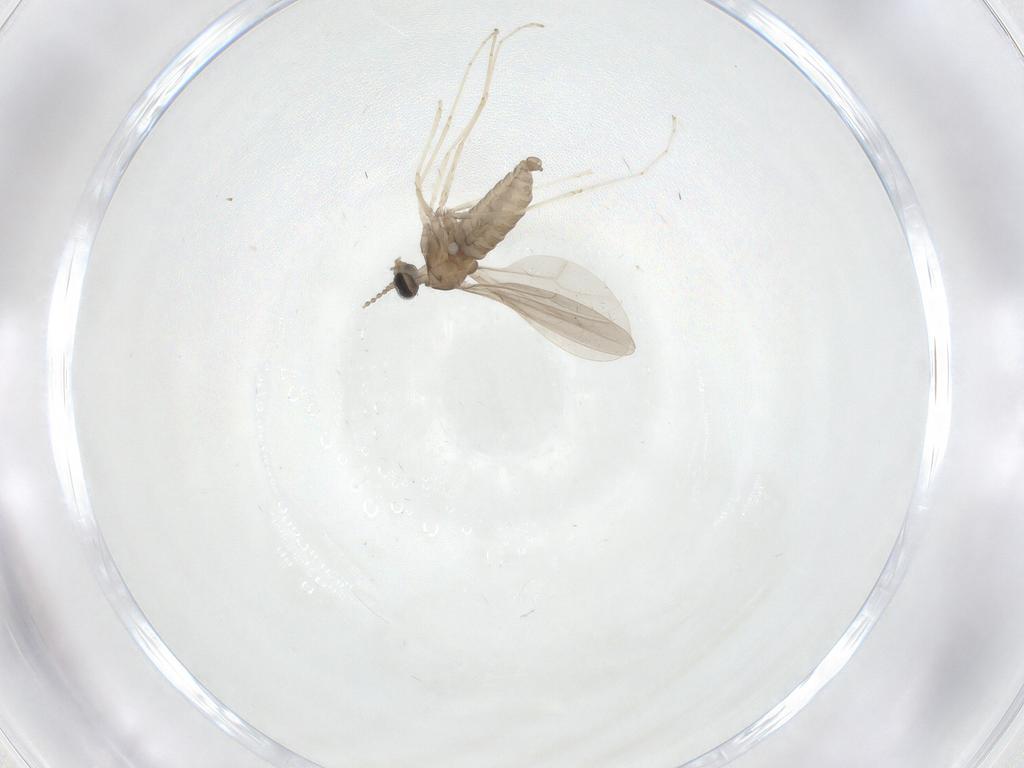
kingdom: Animalia
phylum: Arthropoda
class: Insecta
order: Diptera
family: Cecidomyiidae
